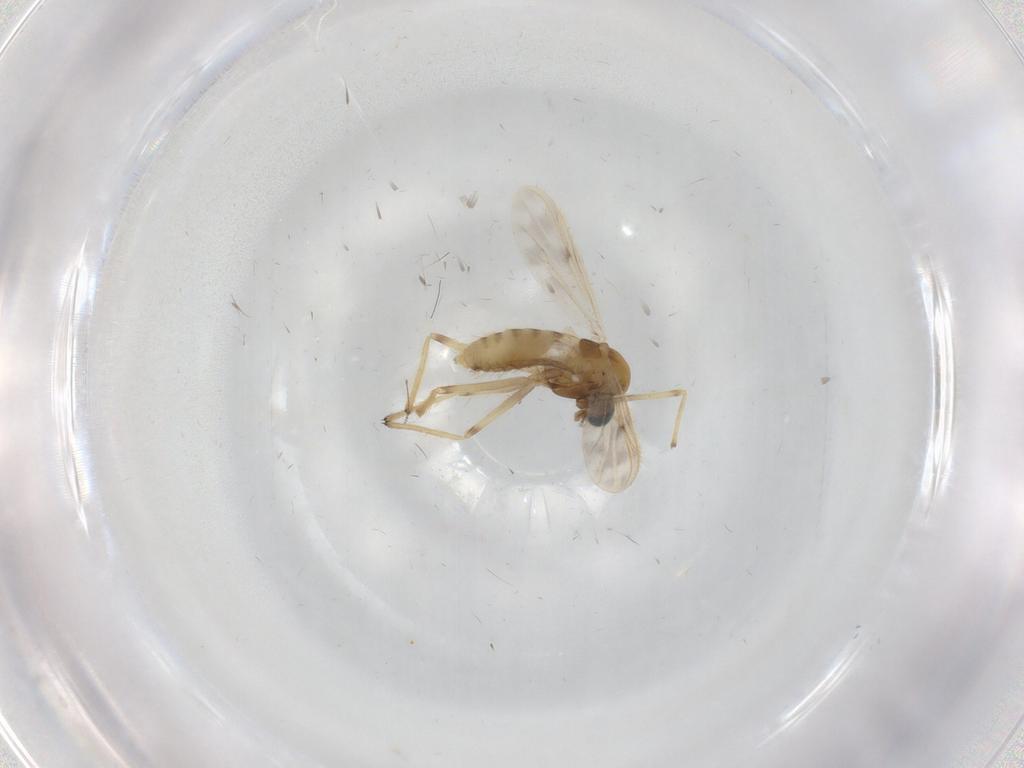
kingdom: Animalia
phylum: Arthropoda
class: Insecta
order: Diptera
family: Chironomidae
